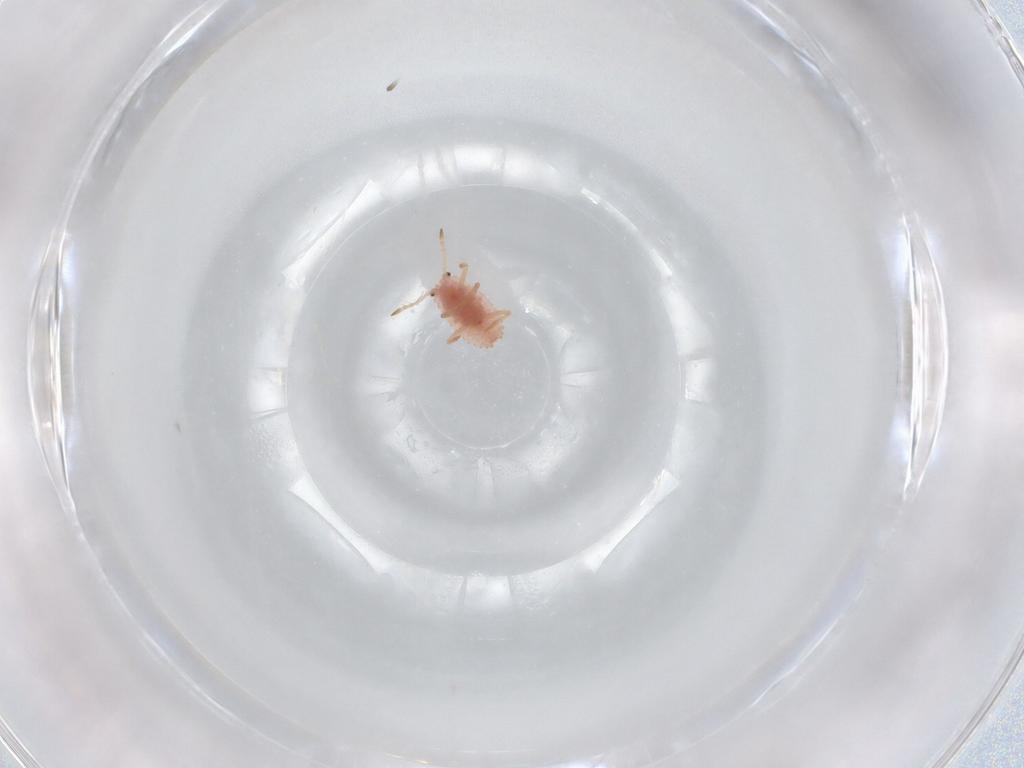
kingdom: Animalia
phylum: Arthropoda
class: Insecta
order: Hemiptera
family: Coccoidea_incertae_sedis
